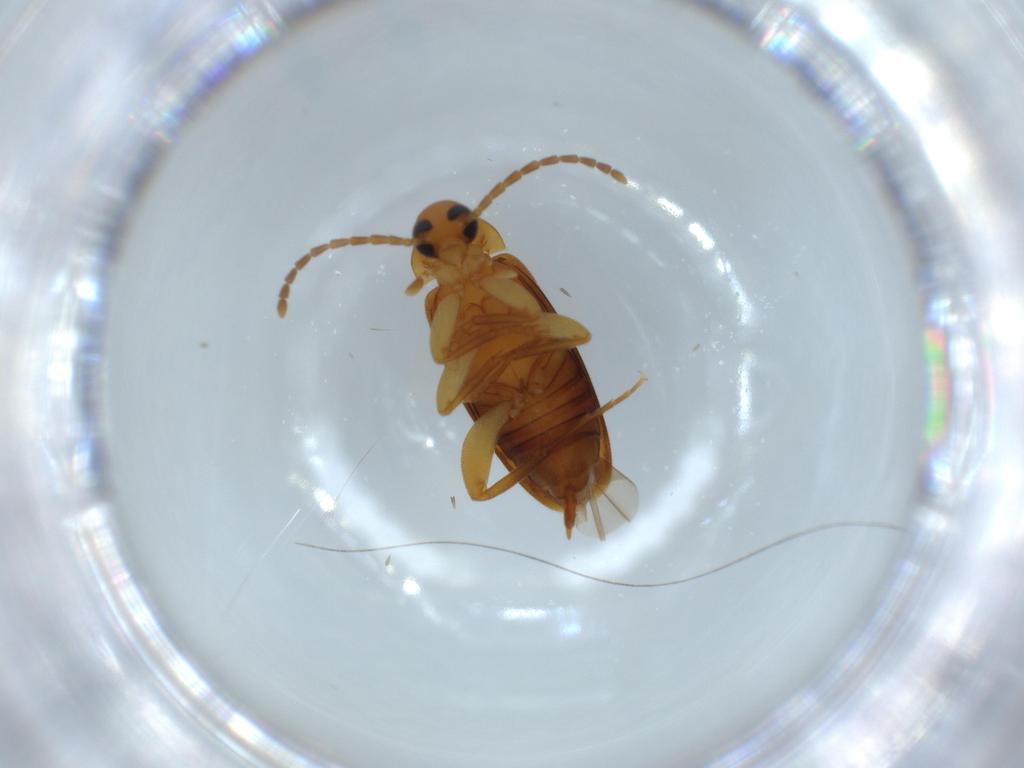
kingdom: Animalia
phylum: Arthropoda
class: Insecta
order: Coleoptera
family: Scraptiidae
